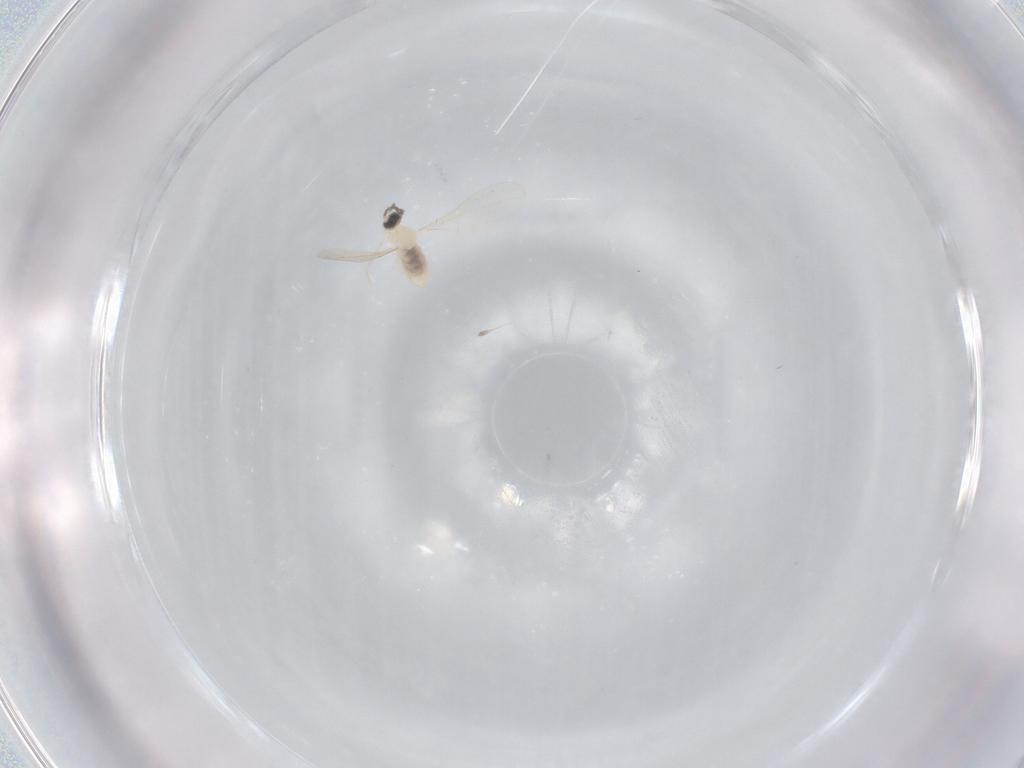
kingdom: Animalia
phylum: Arthropoda
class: Insecta
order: Diptera
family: Cecidomyiidae
